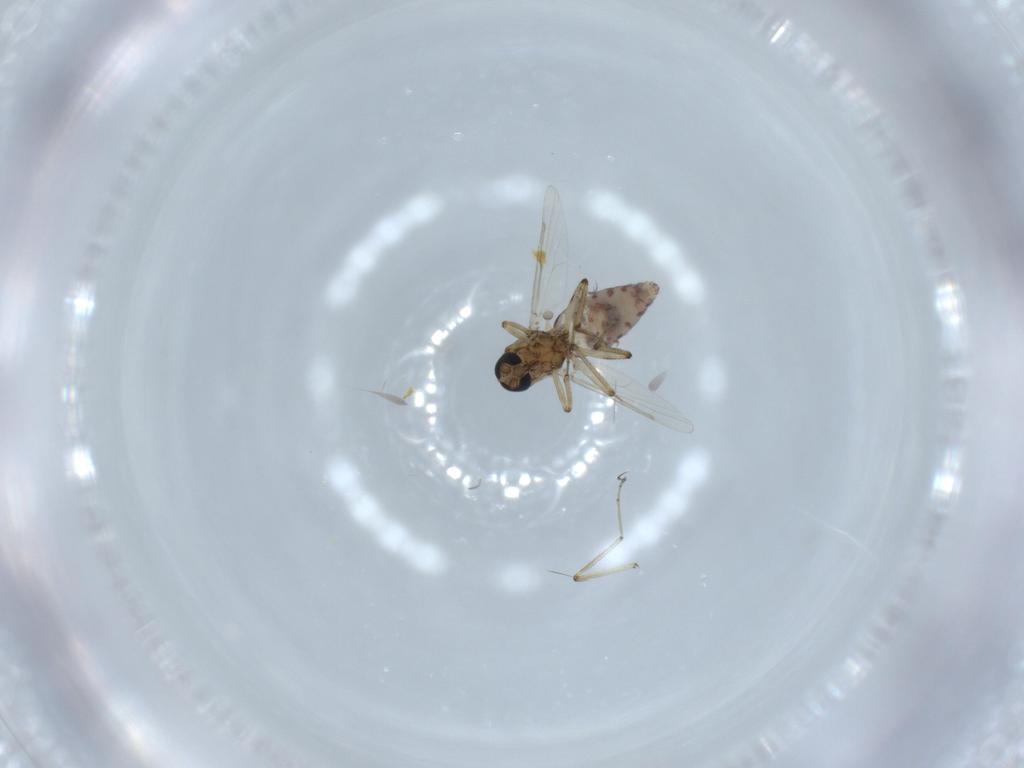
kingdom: Animalia
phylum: Arthropoda
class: Insecta
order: Diptera
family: Ceratopogonidae
